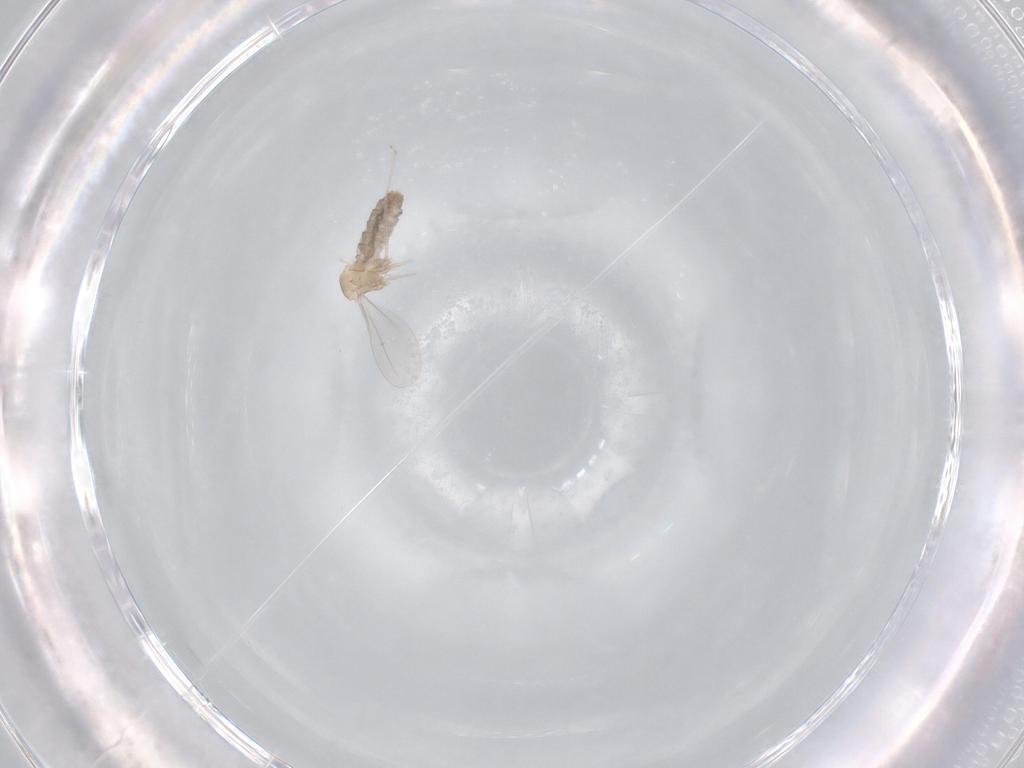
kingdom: Animalia
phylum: Arthropoda
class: Insecta
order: Diptera
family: Cecidomyiidae
